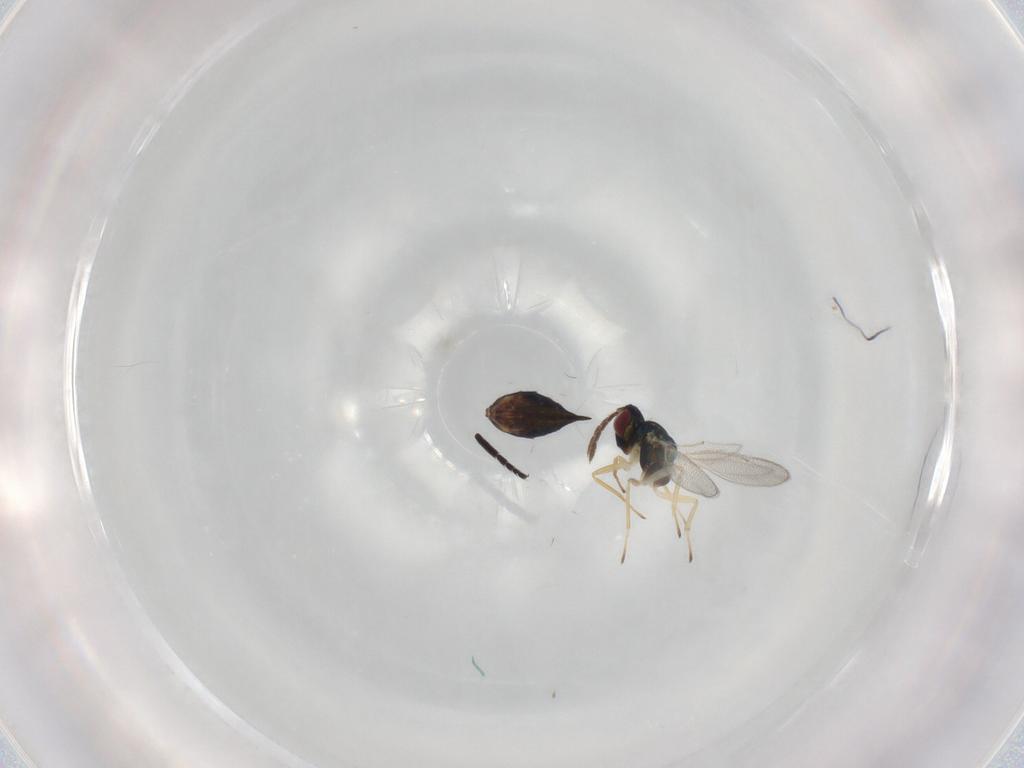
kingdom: Animalia
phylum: Arthropoda
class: Insecta
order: Hymenoptera
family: Eulophidae
